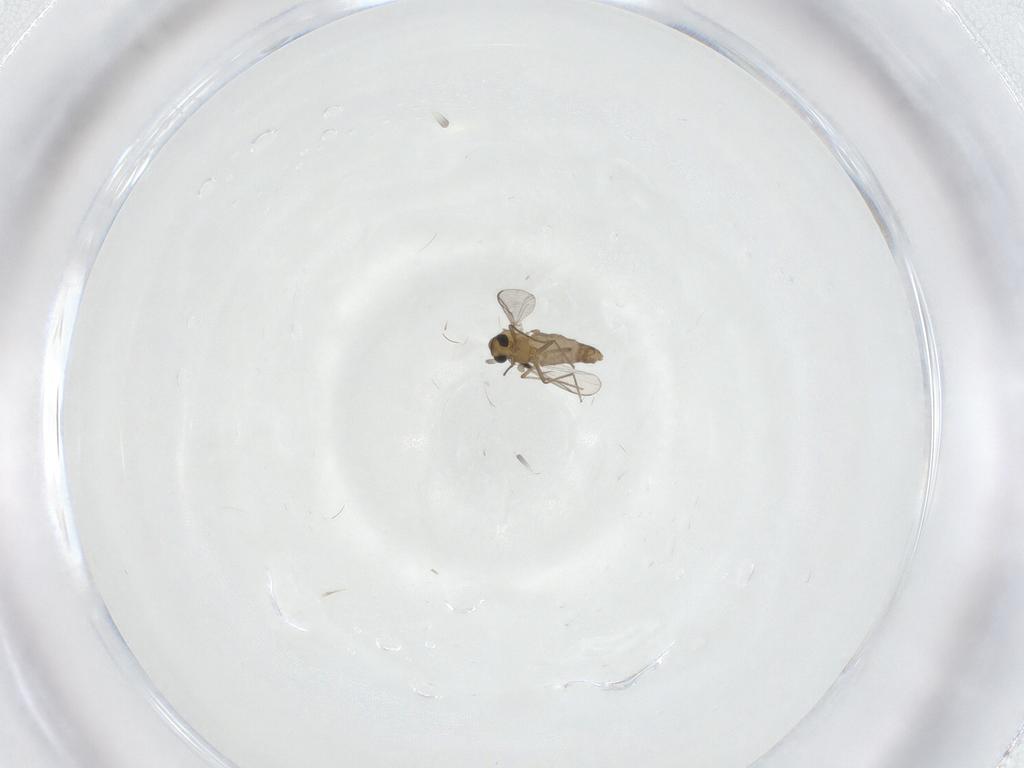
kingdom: Animalia
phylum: Arthropoda
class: Insecta
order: Diptera
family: Chironomidae
